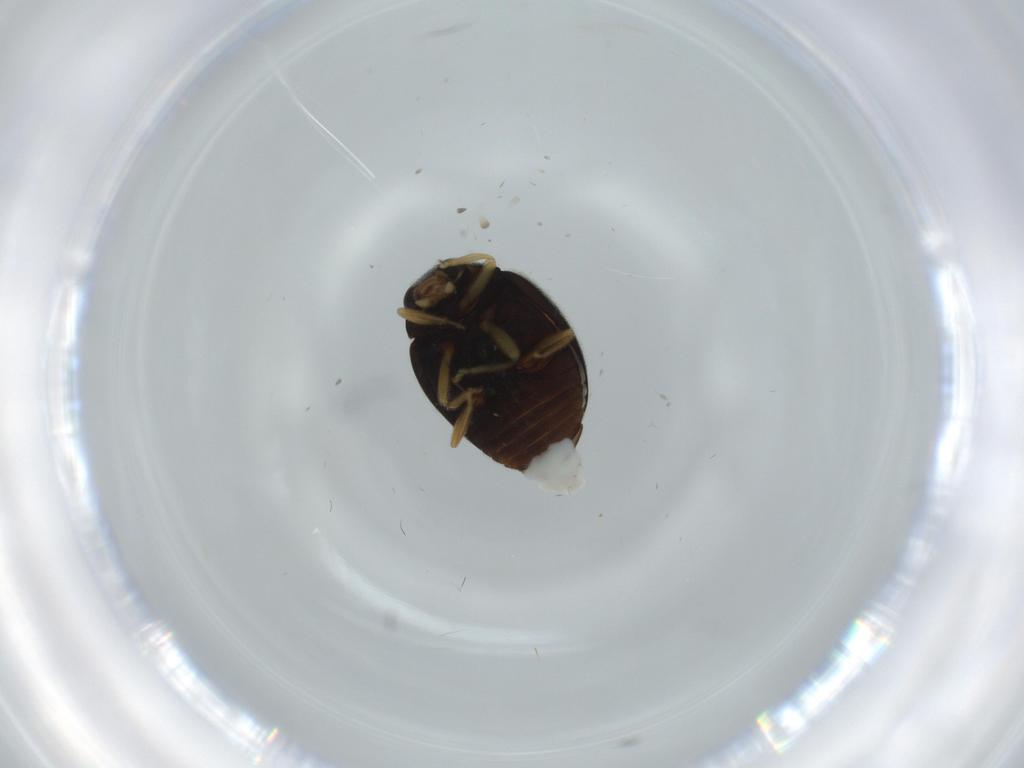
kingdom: Animalia
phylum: Arthropoda
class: Insecta
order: Coleoptera
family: Coccinellidae
